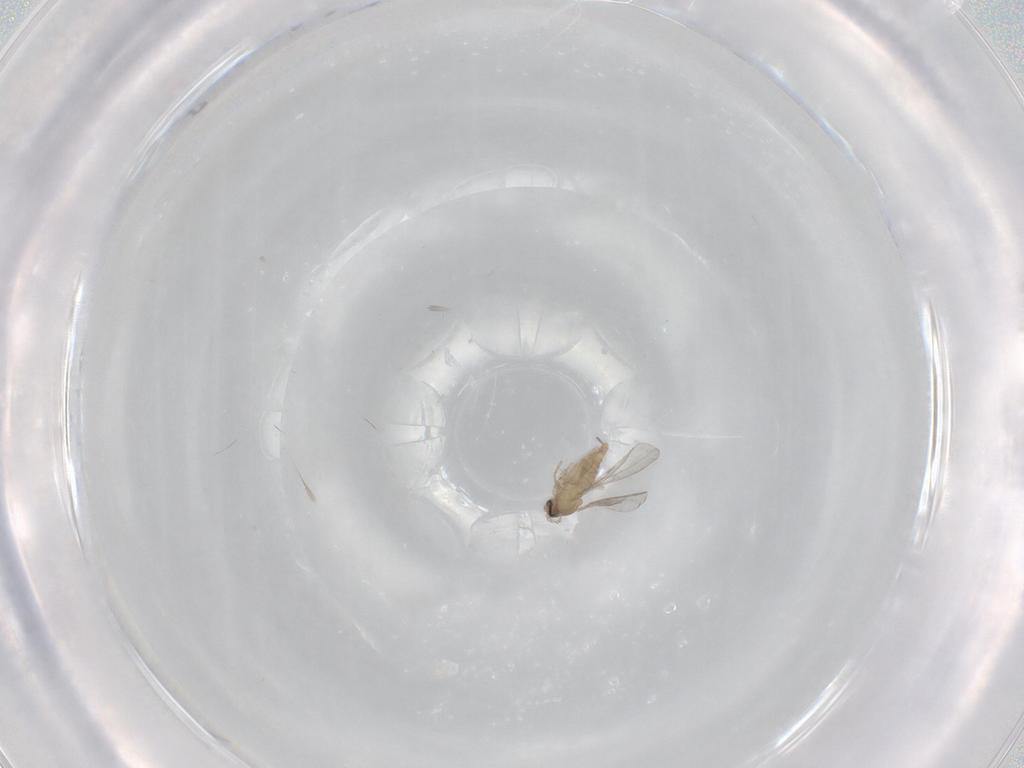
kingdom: Animalia
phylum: Arthropoda
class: Insecta
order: Diptera
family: Cecidomyiidae
